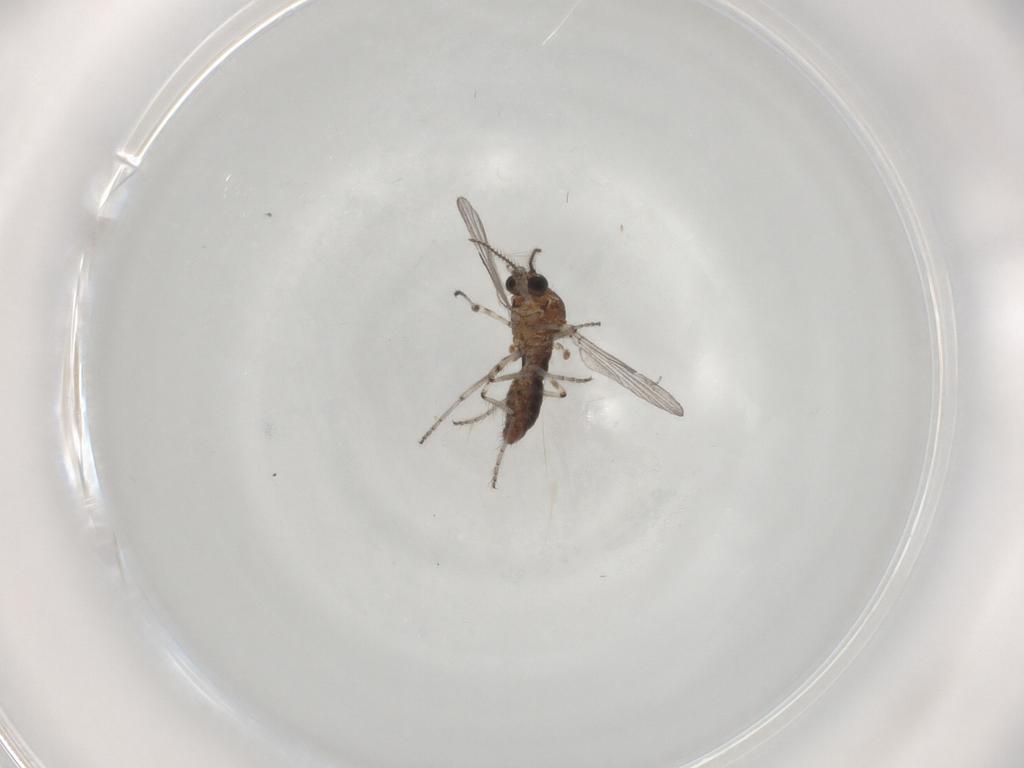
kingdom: Animalia
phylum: Arthropoda
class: Insecta
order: Diptera
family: Ceratopogonidae
